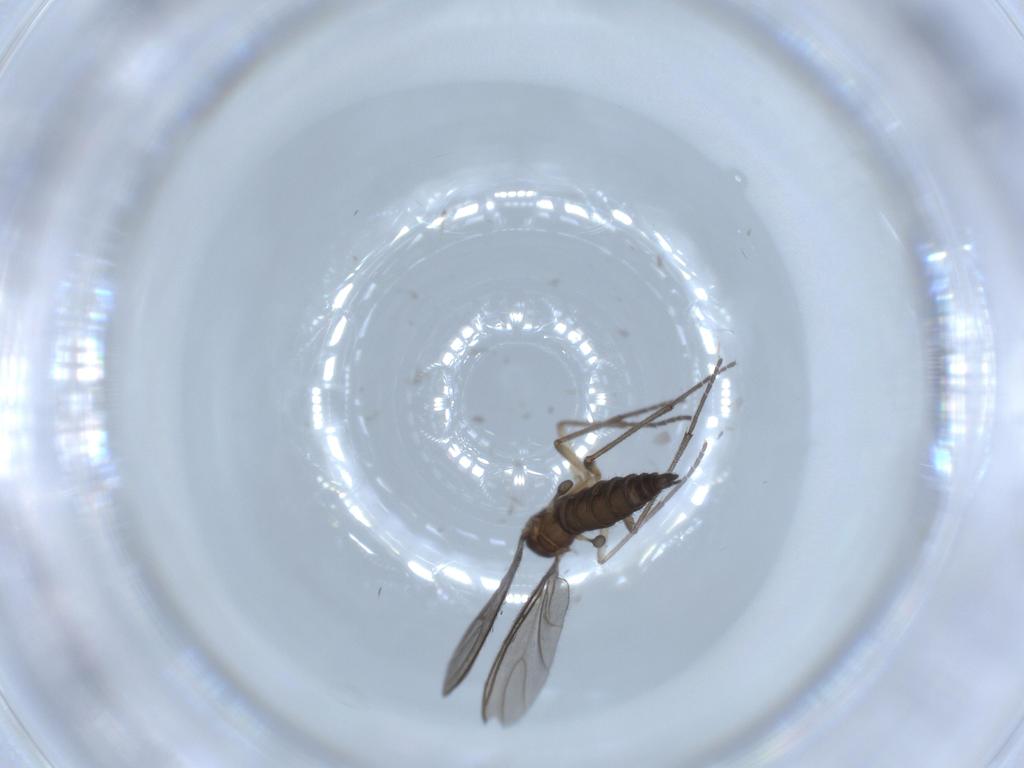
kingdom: Animalia
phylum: Arthropoda
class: Insecta
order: Diptera
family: Sciaridae
